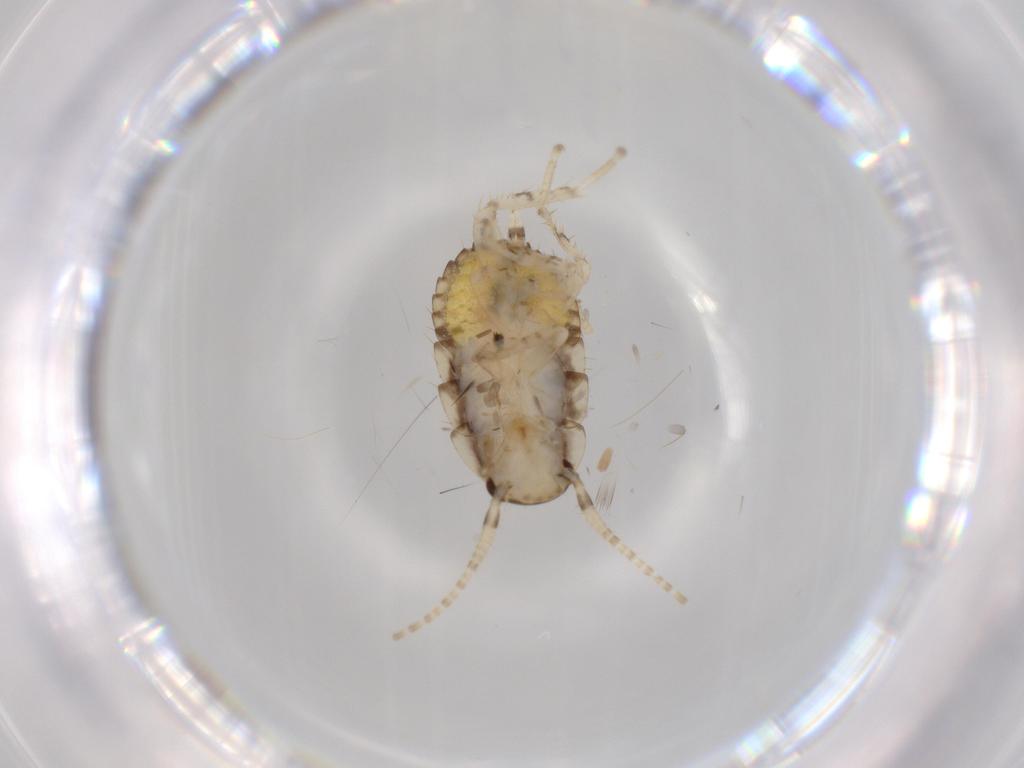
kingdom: Animalia
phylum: Arthropoda
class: Insecta
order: Blattodea
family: Ectobiidae
